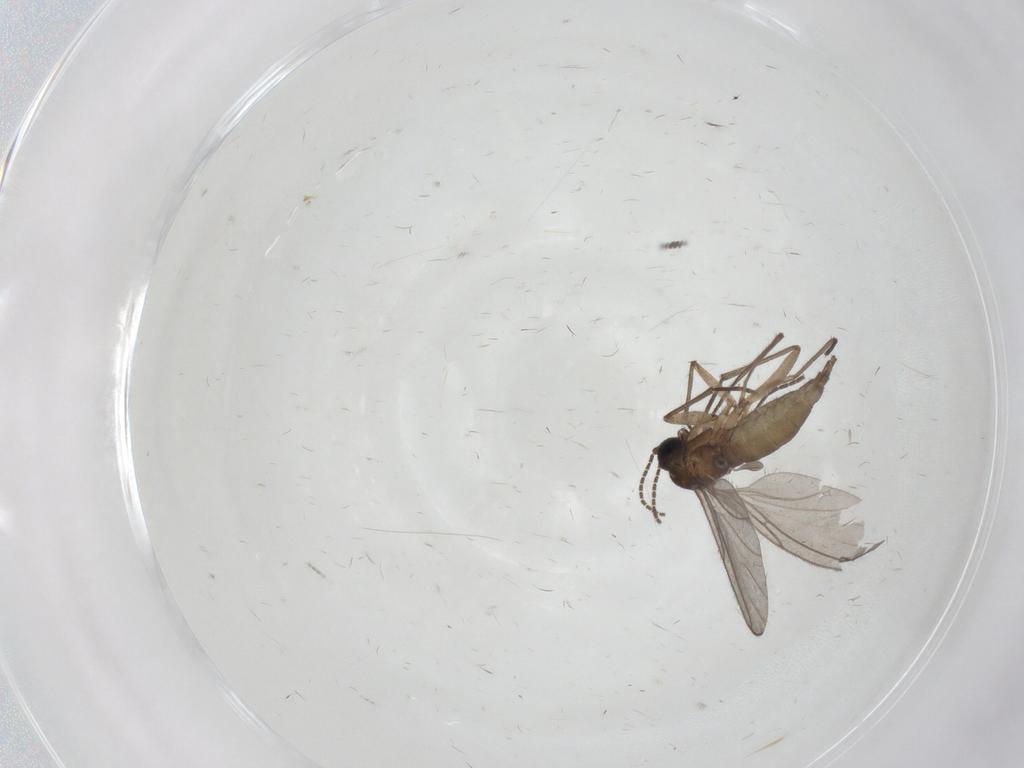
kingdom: Animalia
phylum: Arthropoda
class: Insecta
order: Diptera
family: Sciaridae
